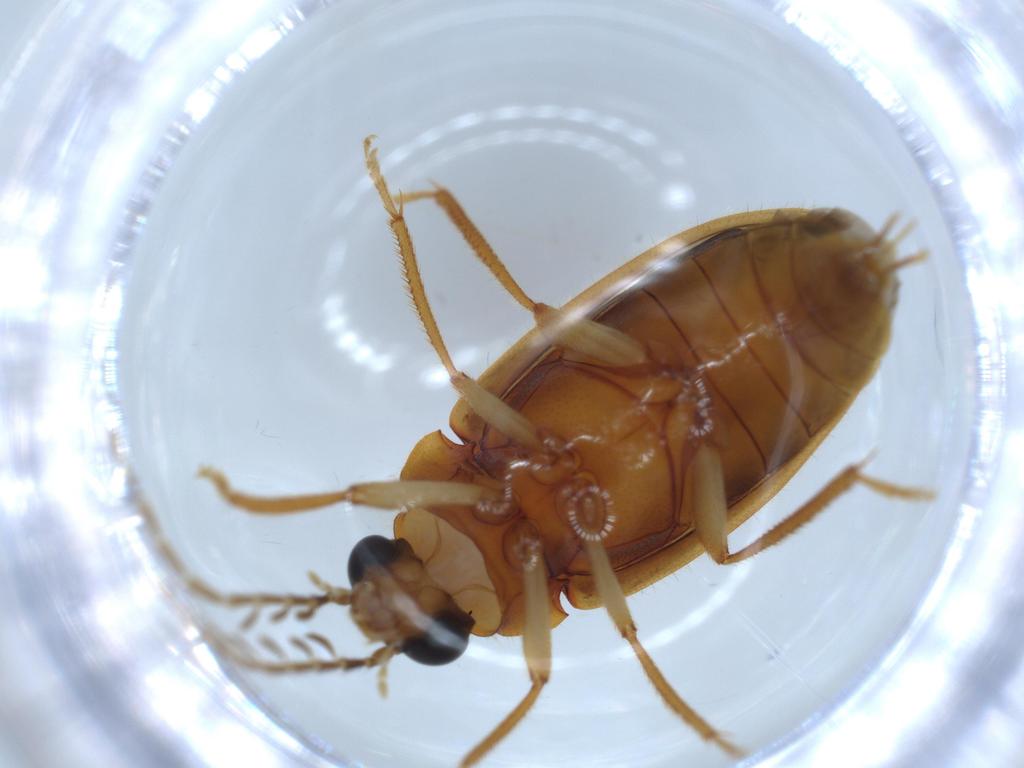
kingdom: Animalia
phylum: Arthropoda
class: Insecta
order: Coleoptera
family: Ptilodactylidae
